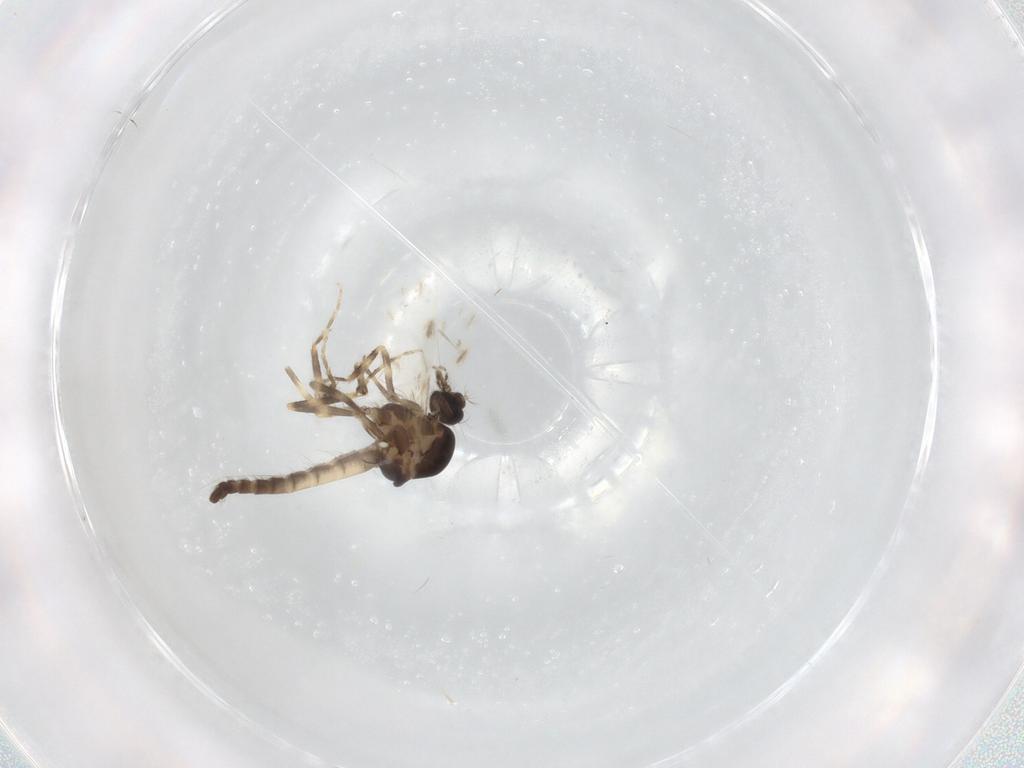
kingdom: Animalia
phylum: Arthropoda
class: Insecta
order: Diptera
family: Ceratopogonidae
